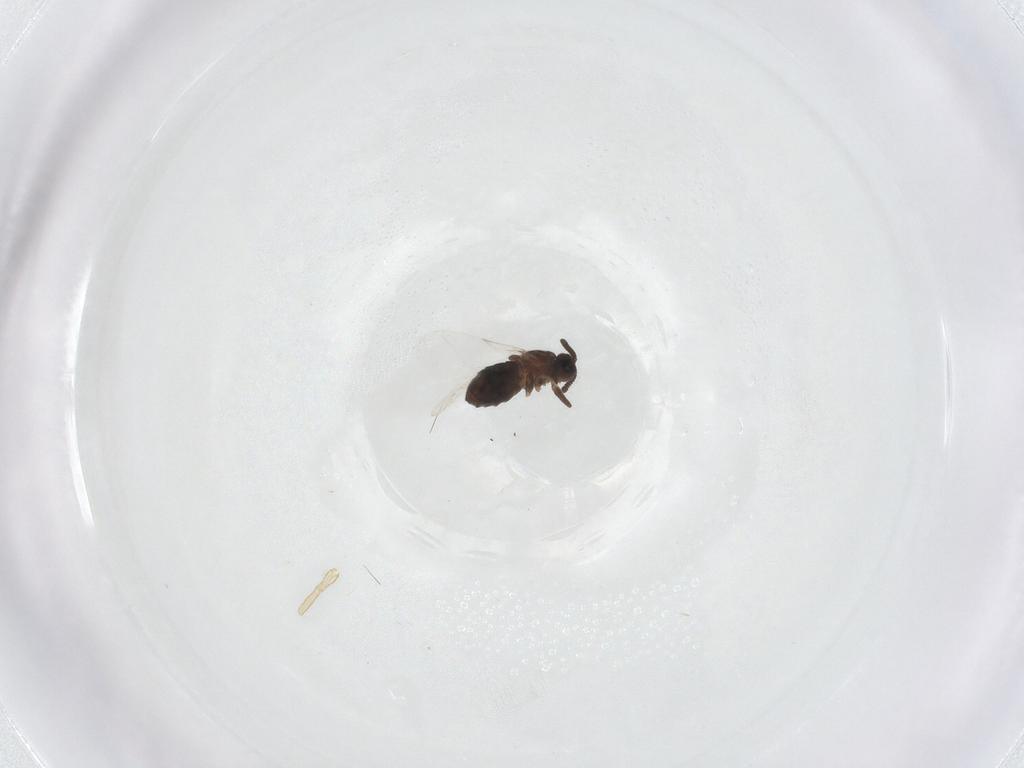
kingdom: Animalia
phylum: Arthropoda
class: Insecta
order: Diptera
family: Scatopsidae
